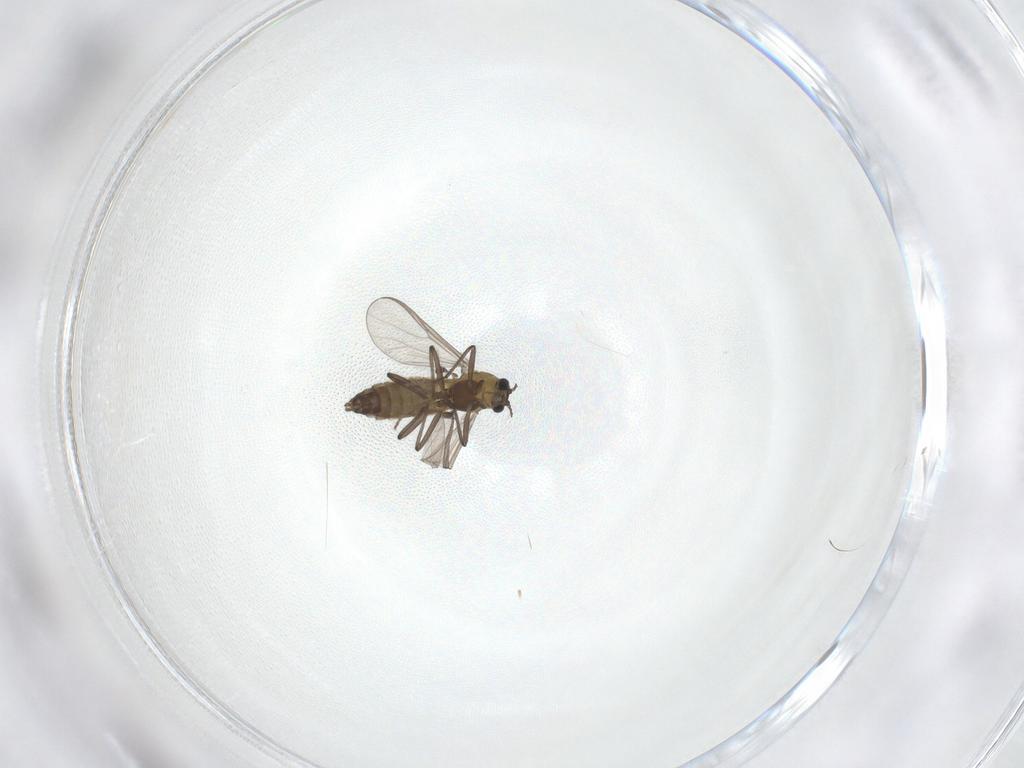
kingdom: Animalia
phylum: Arthropoda
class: Insecta
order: Diptera
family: Chironomidae
